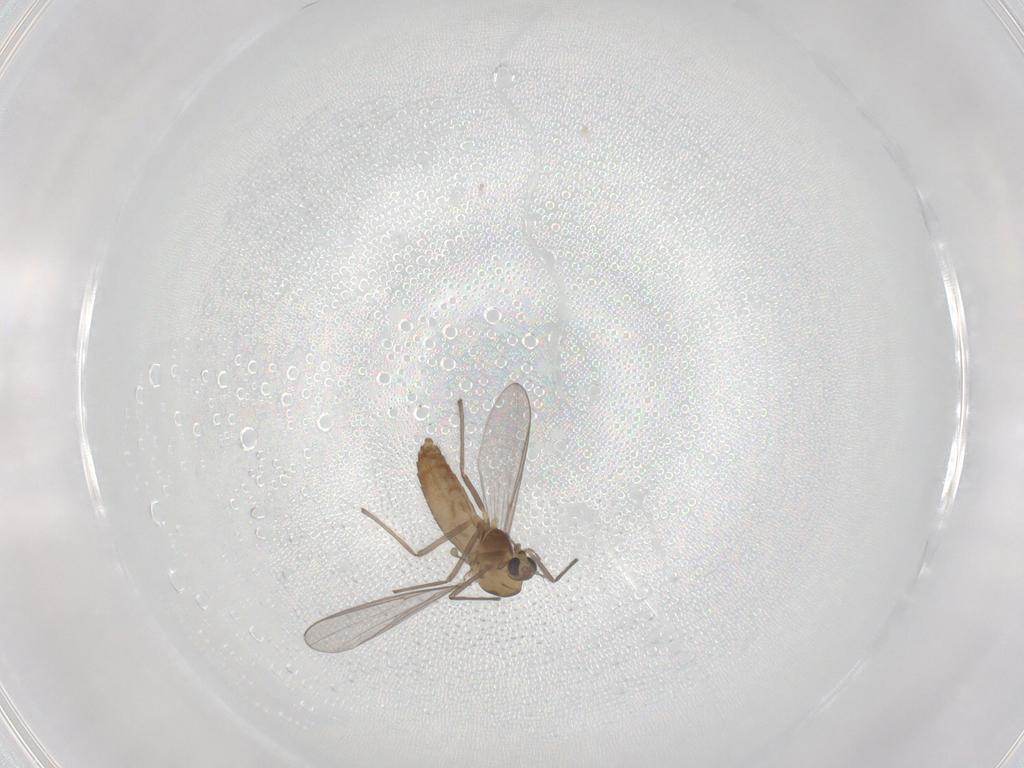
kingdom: Animalia
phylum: Arthropoda
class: Insecta
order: Diptera
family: Chironomidae
